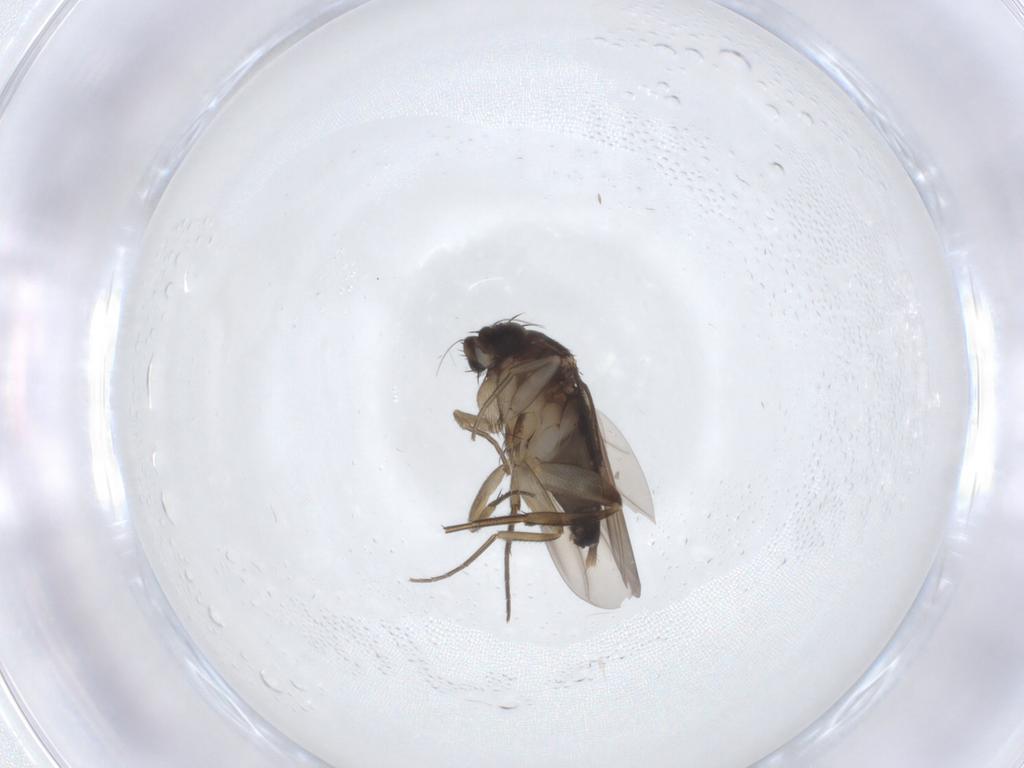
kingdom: Animalia
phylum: Arthropoda
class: Insecta
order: Diptera
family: Phoridae
